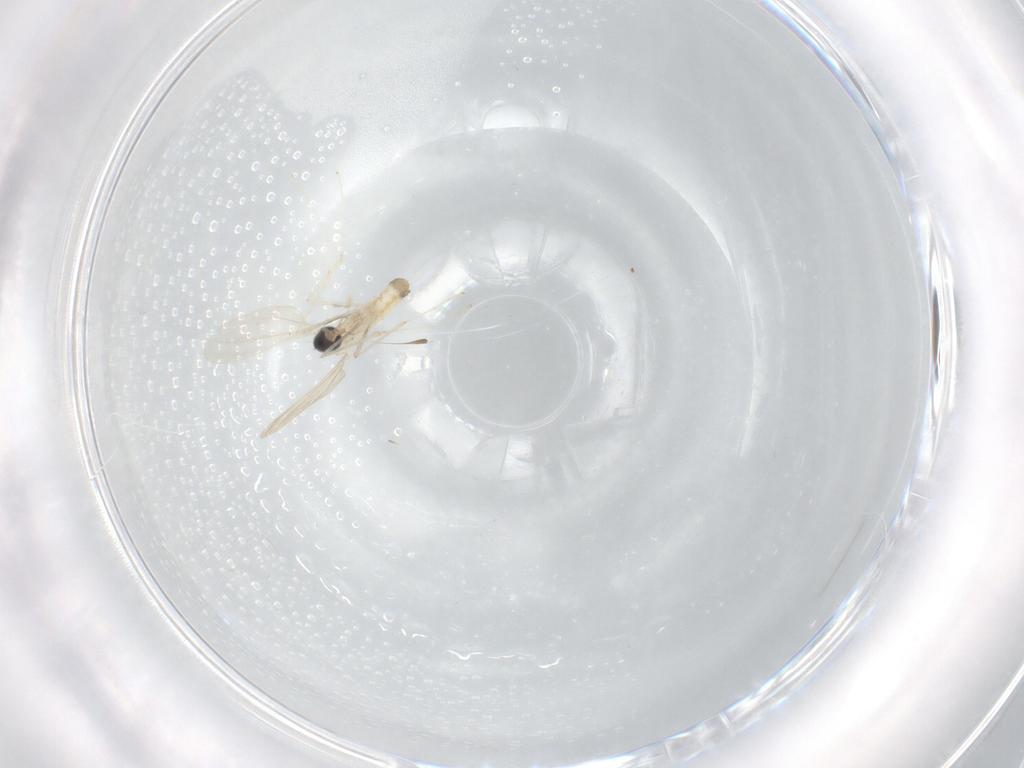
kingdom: Animalia
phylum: Arthropoda
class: Insecta
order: Diptera
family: Cecidomyiidae
